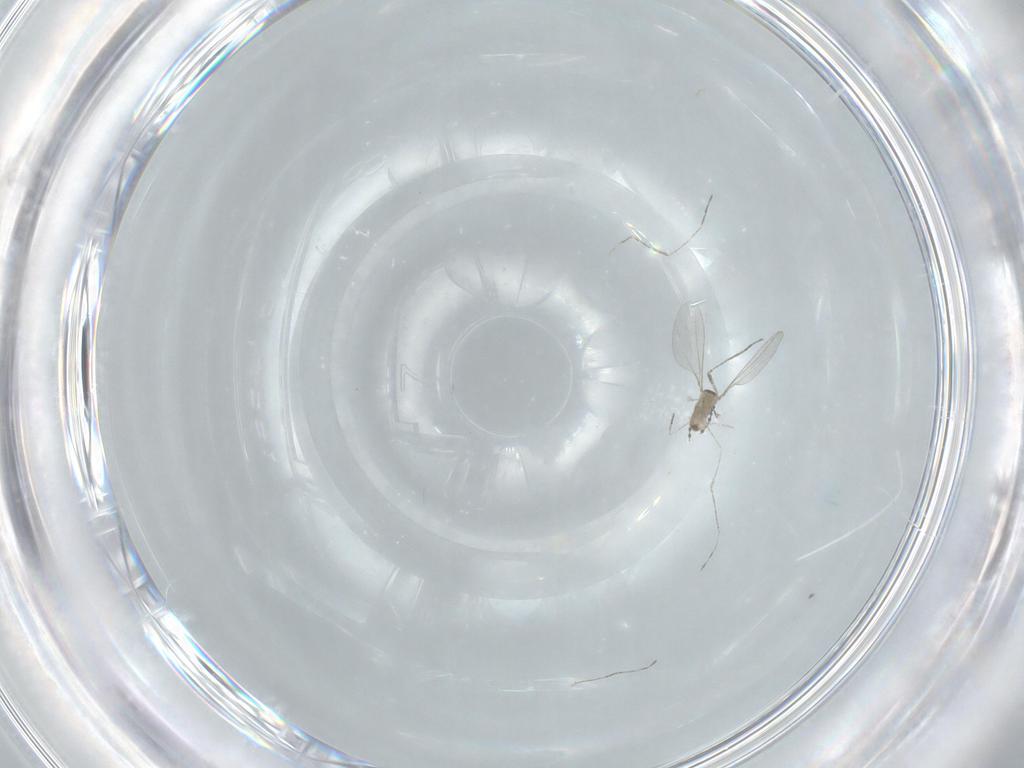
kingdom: Animalia
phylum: Arthropoda
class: Insecta
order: Diptera
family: Cecidomyiidae
